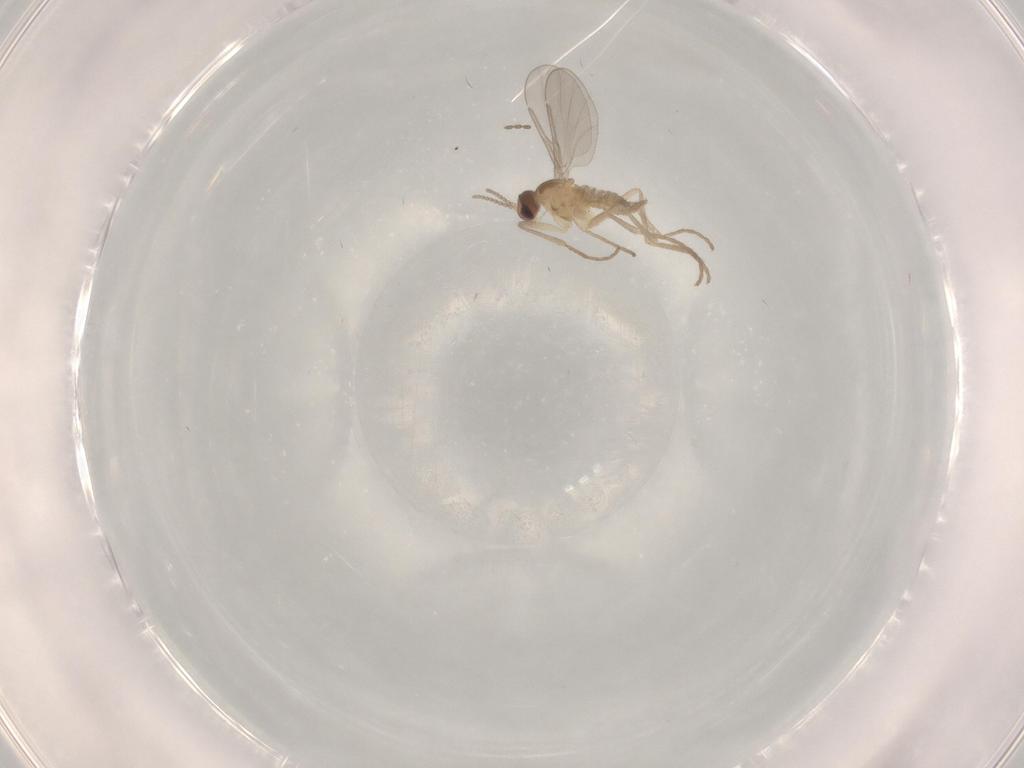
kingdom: Animalia
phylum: Arthropoda
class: Insecta
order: Diptera
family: Cecidomyiidae
